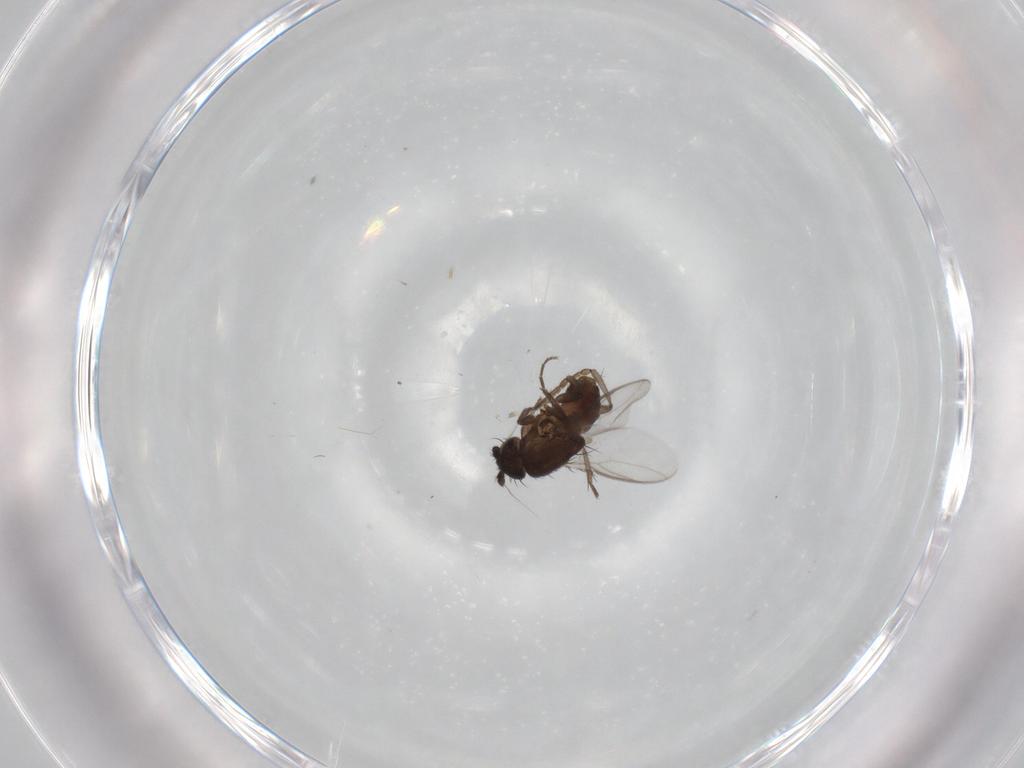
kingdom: Animalia
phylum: Arthropoda
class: Insecta
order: Diptera
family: Sphaeroceridae
